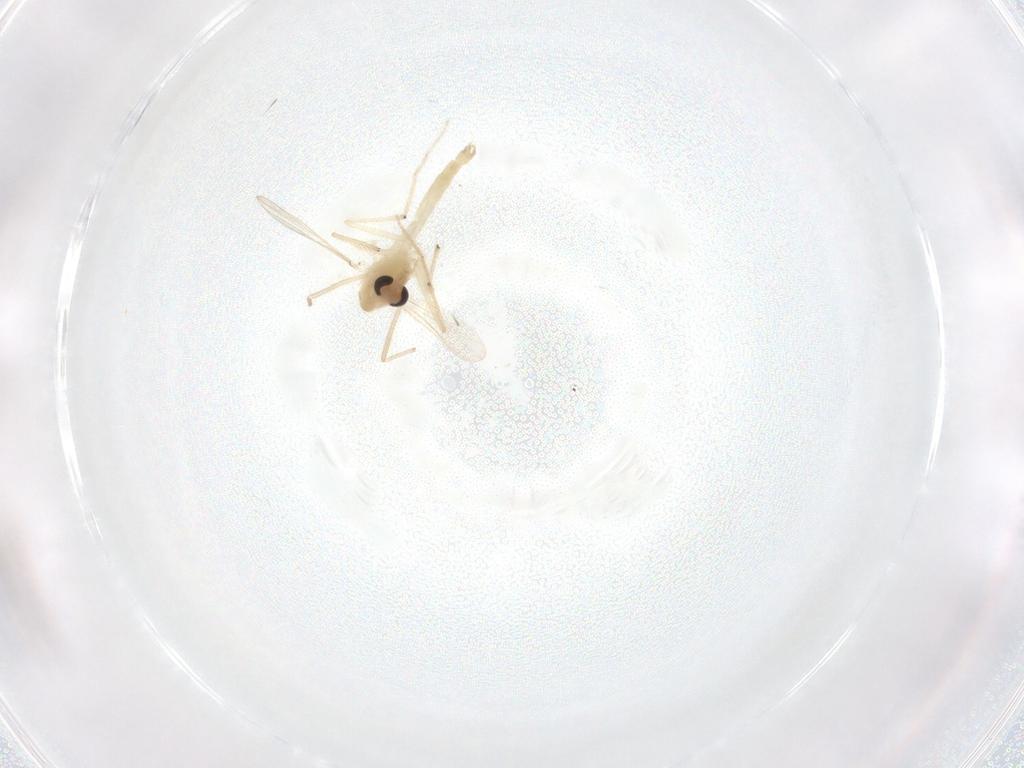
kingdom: Animalia
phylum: Arthropoda
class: Insecta
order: Diptera
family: Chironomidae
